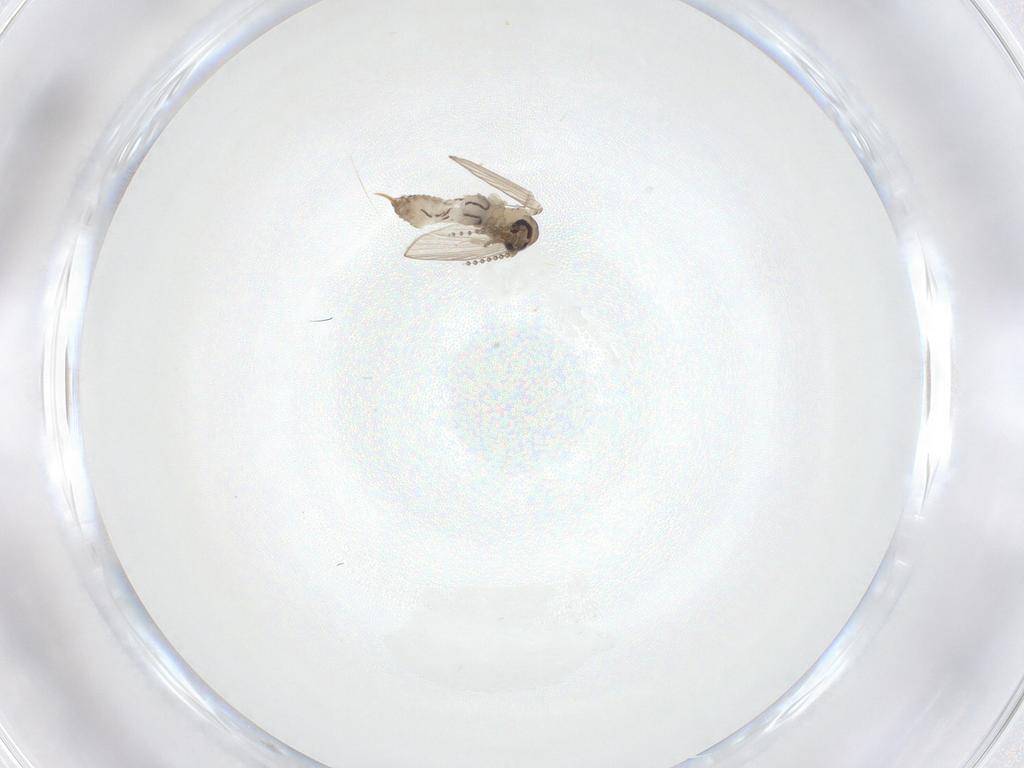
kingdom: Animalia
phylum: Arthropoda
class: Insecta
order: Diptera
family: Psychodidae
